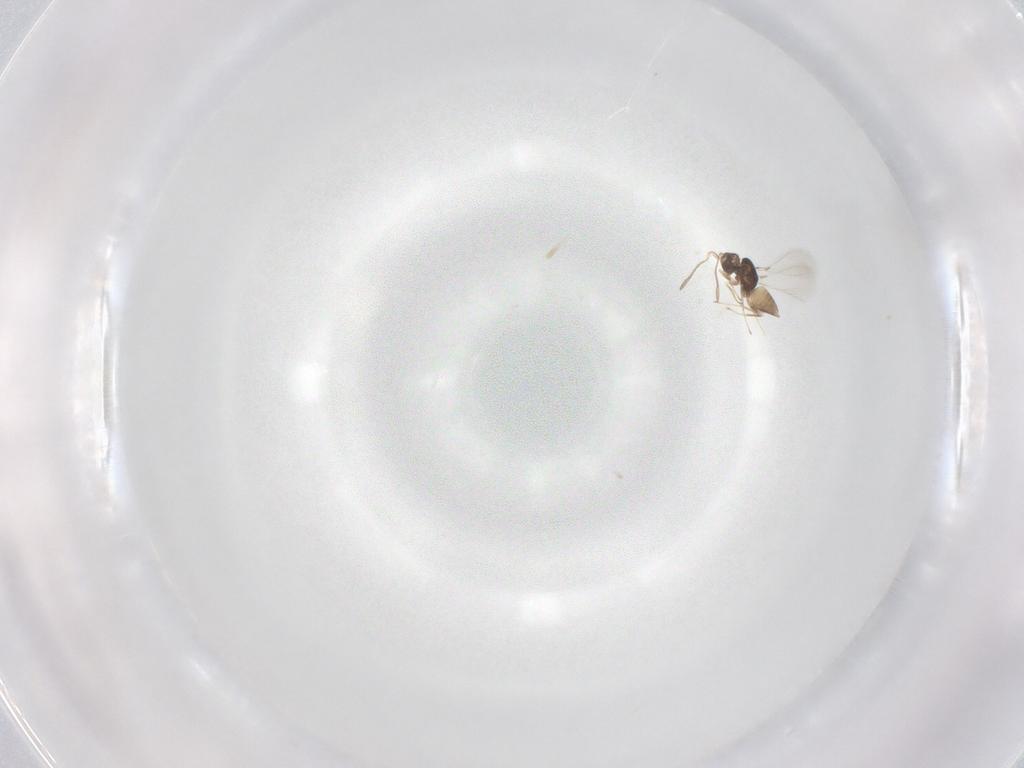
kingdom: Animalia
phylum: Arthropoda
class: Insecta
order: Hymenoptera
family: Mymaridae
